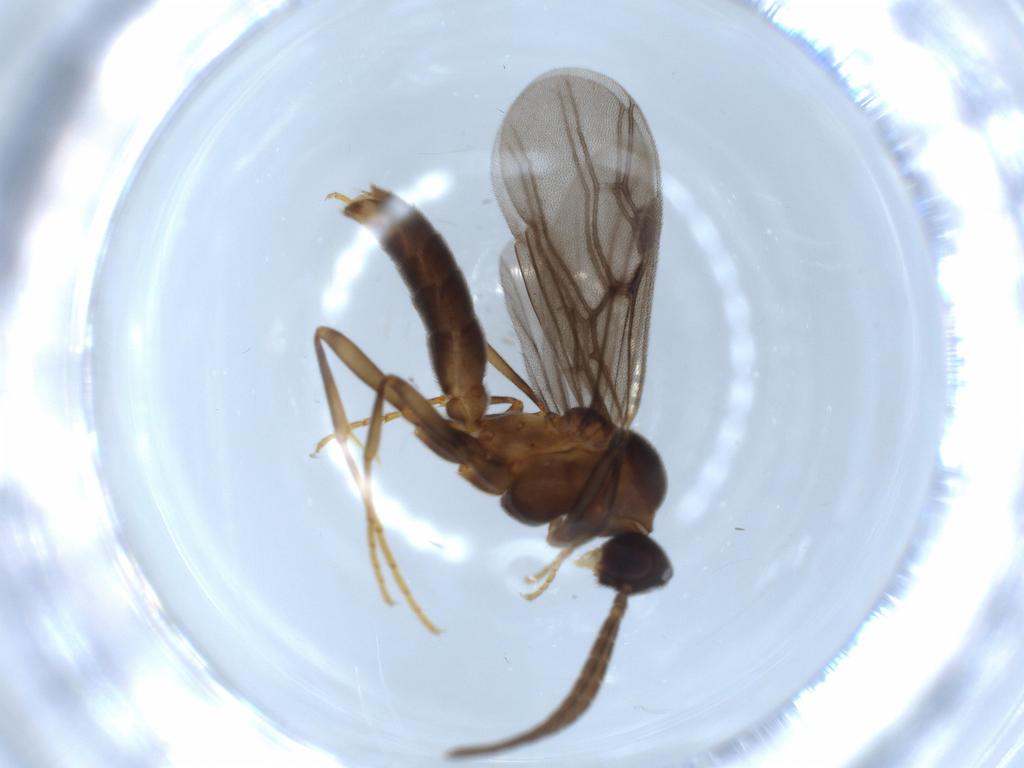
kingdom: Animalia
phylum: Arthropoda
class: Insecta
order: Hymenoptera
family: Formicidae
